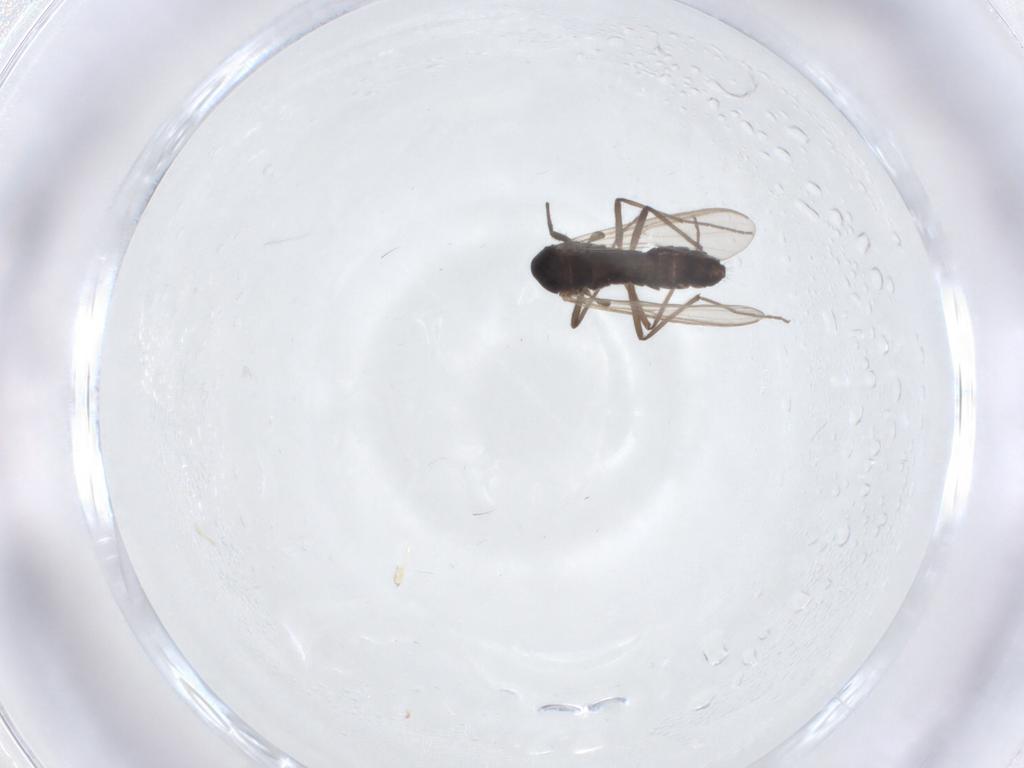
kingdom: Animalia
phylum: Arthropoda
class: Insecta
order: Diptera
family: Chironomidae
